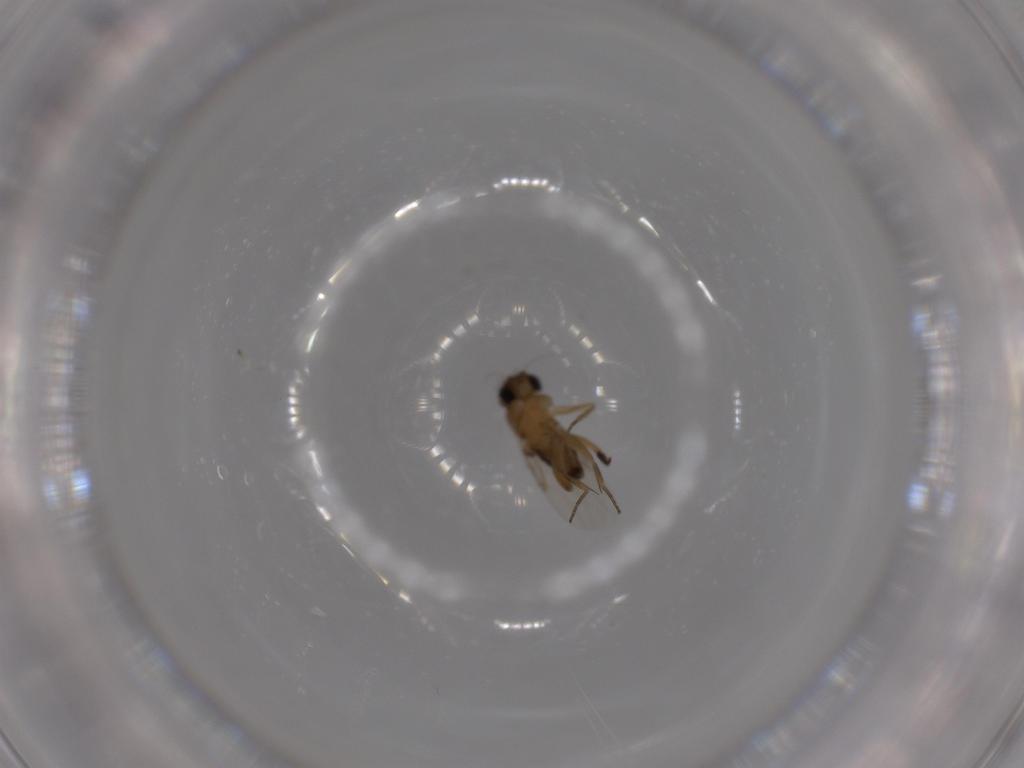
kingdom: Animalia
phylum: Arthropoda
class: Insecta
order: Diptera
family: Phoridae
